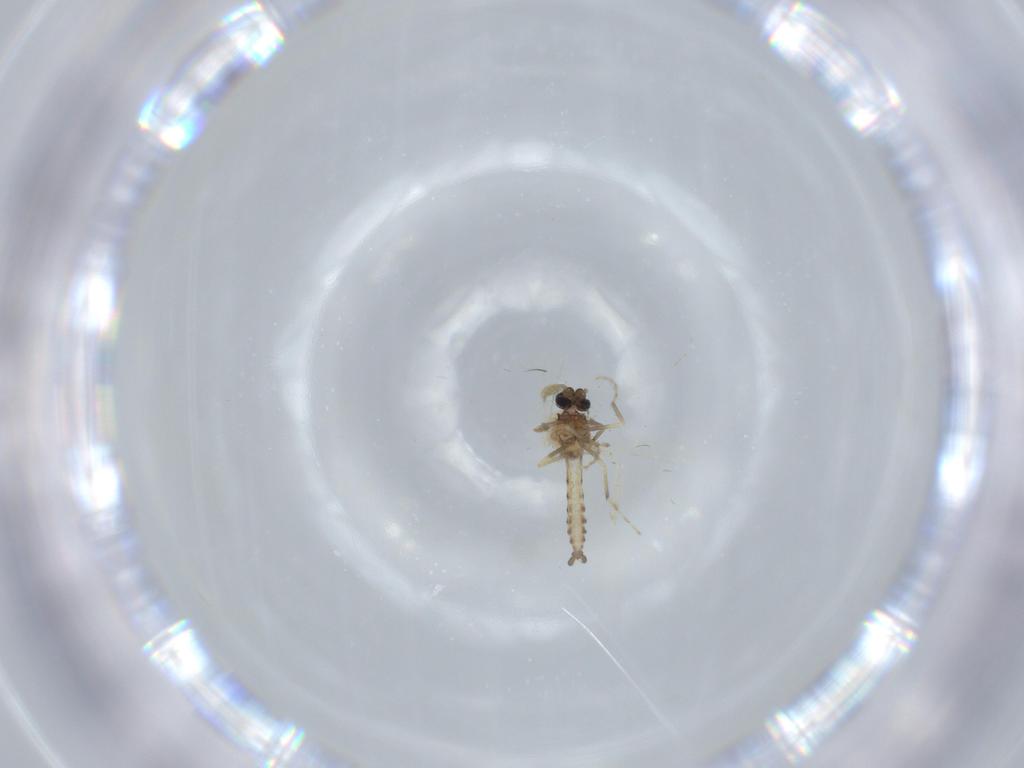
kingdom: Animalia
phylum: Arthropoda
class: Insecta
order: Diptera
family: Ceratopogonidae
